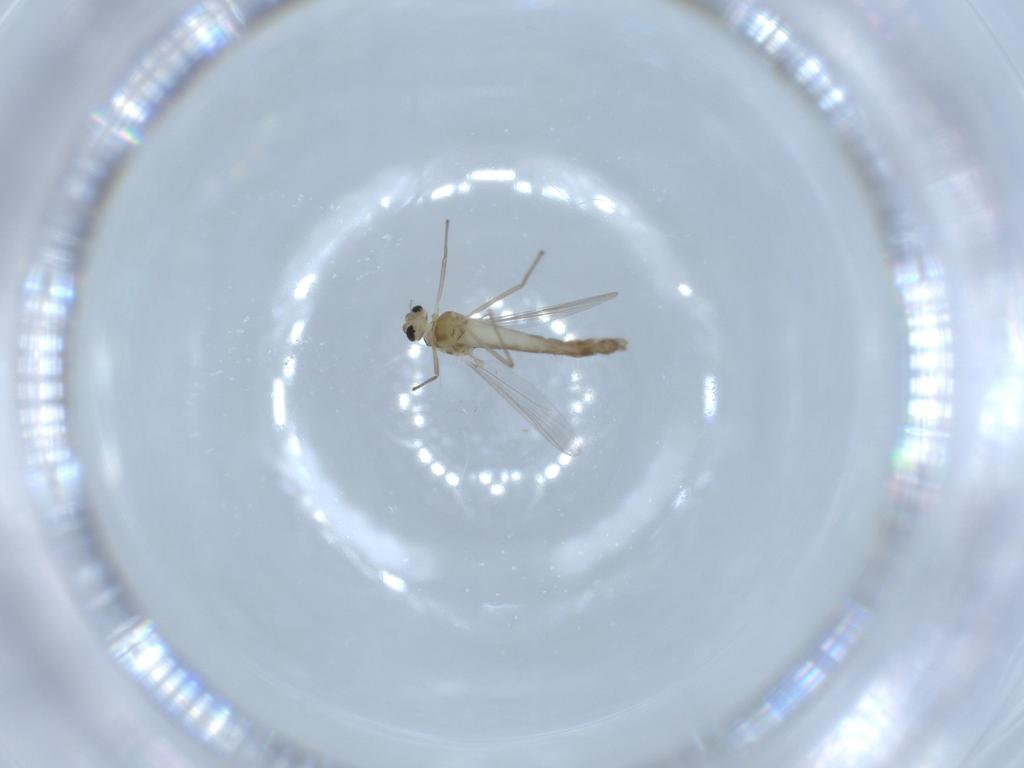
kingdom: Animalia
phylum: Arthropoda
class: Insecta
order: Diptera
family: Chironomidae
